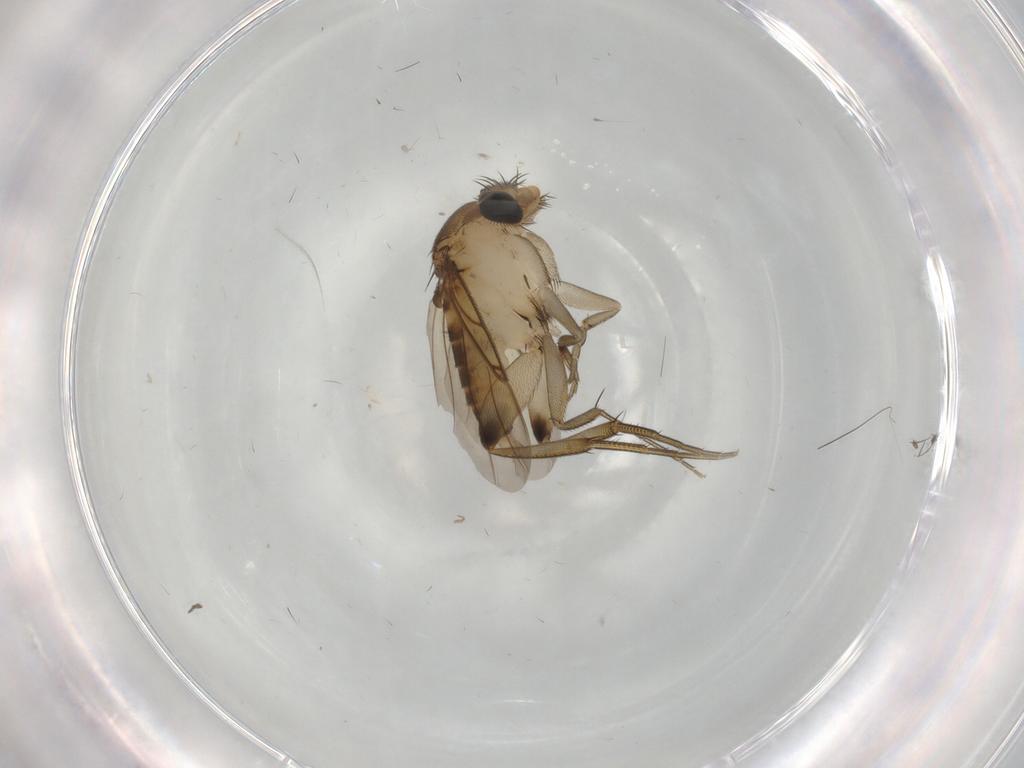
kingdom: Animalia
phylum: Arthropoda
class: Insecta
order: Diptera
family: Phoridae
